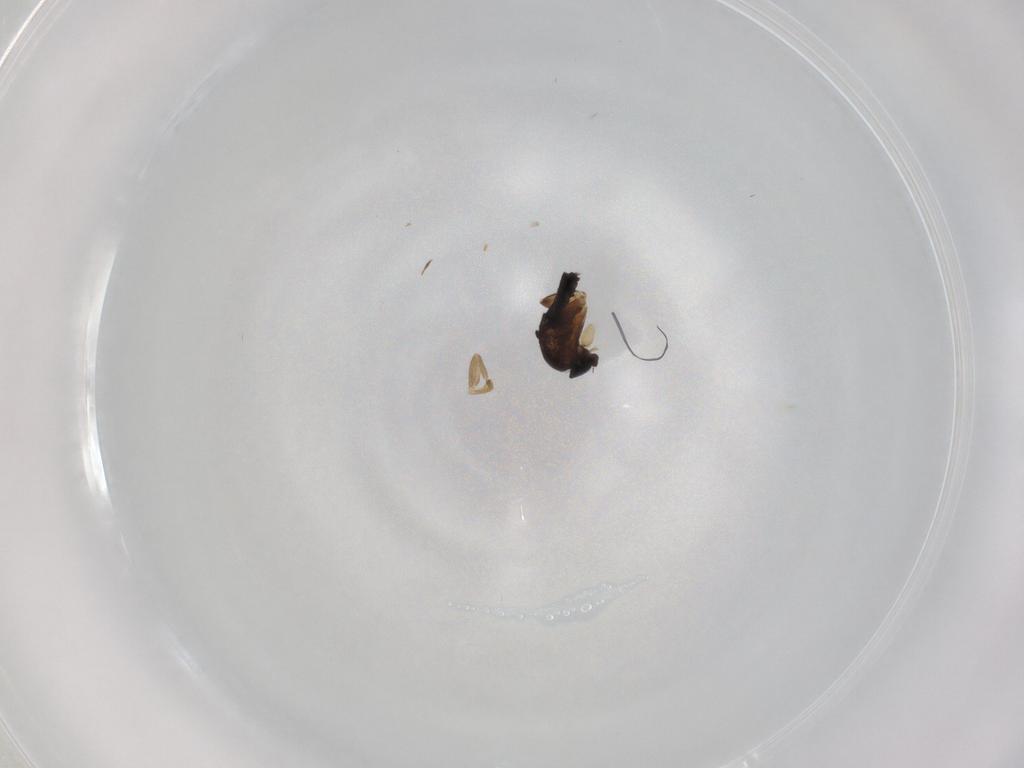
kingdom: Animalia
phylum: Arthropoda
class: Insecta
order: Diptera
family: Phoridae
